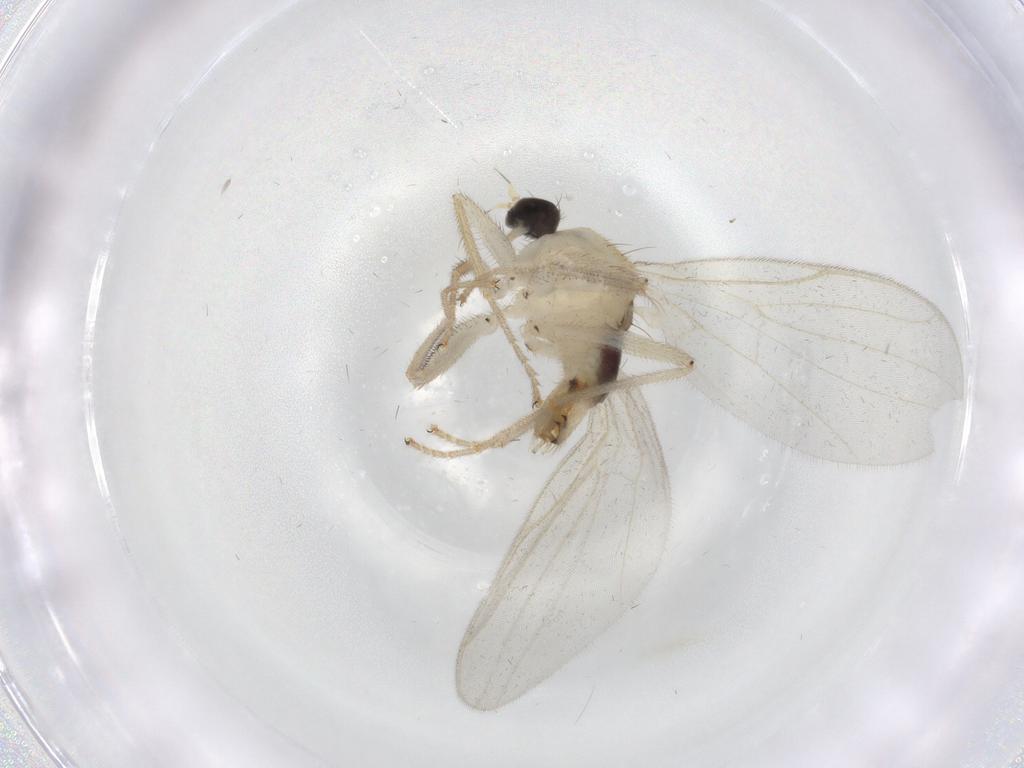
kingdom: Animalia
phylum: Arthropoda
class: Insecta
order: Diptera
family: Hybotidae
